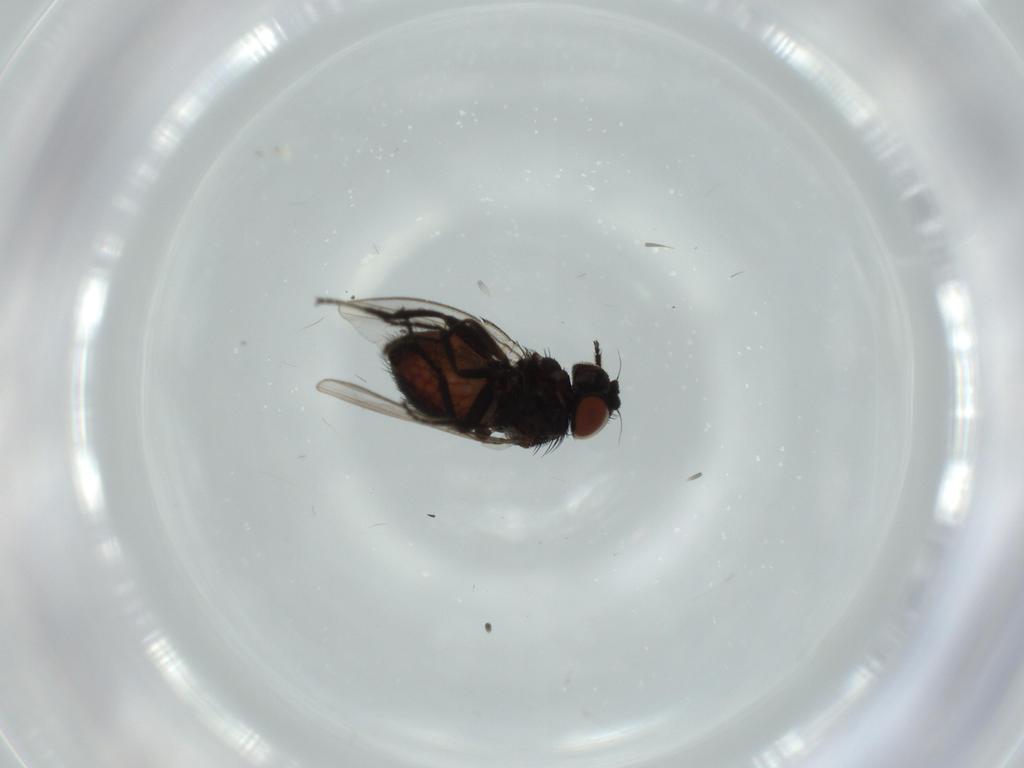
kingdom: Animalia
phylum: Arthropoda
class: Insecta
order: Diptera
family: Milichiidae
